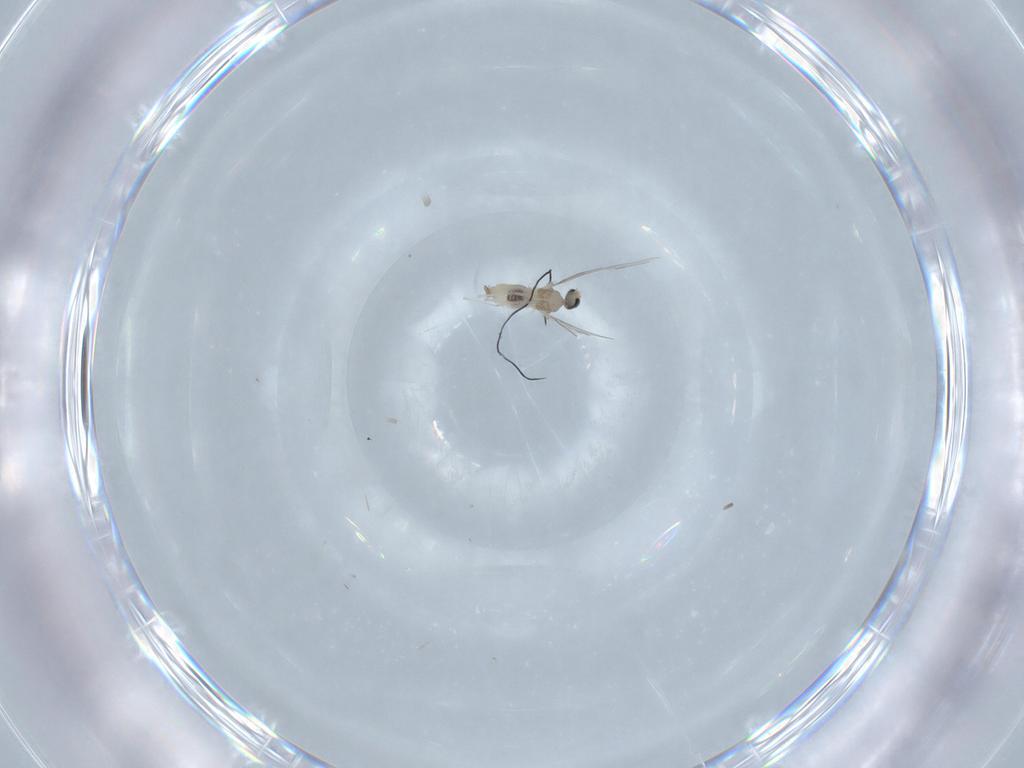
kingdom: Animalia
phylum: Arthropoda
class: Insecta
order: Diptera
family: Cecidomyiidae
